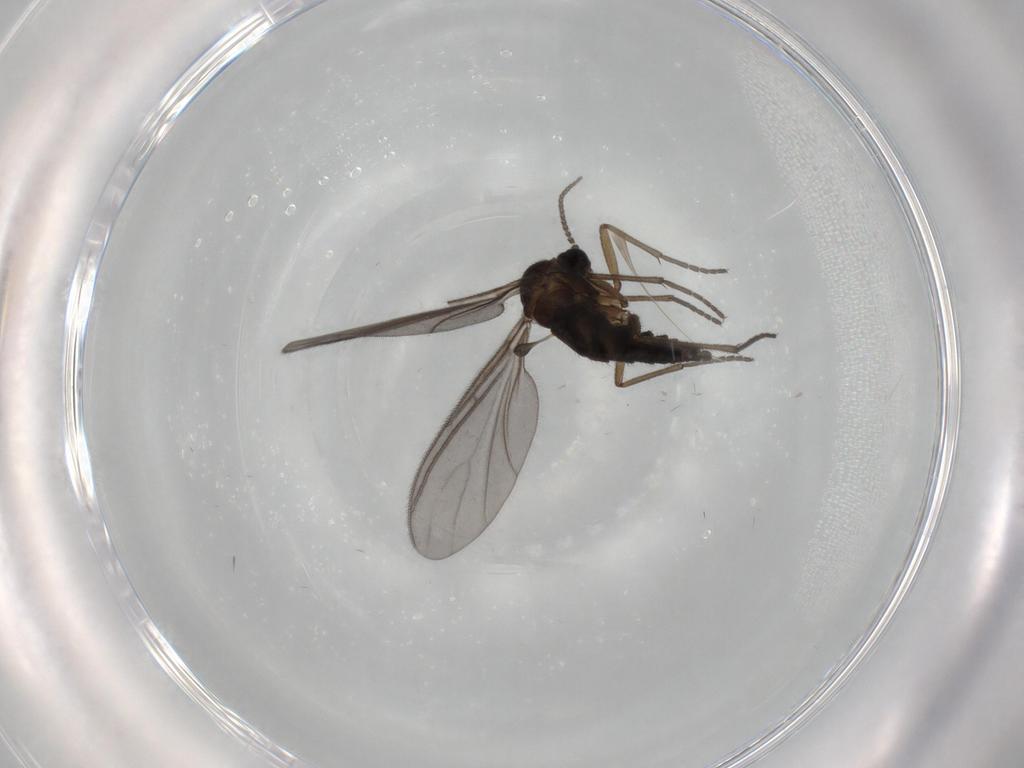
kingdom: Animalia
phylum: Arthropoda
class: Insecta
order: Diptera
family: Sciaridae
